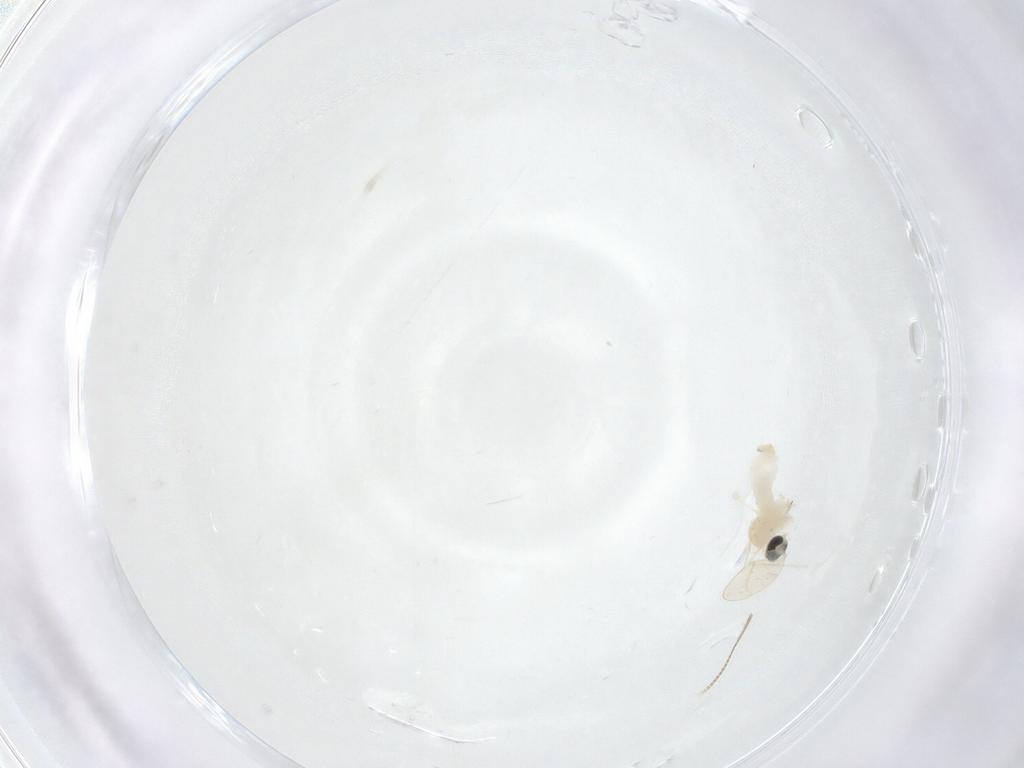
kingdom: Animalia
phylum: Arthropoda
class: Insecta
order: Diptera
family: Cecidomyiidae
